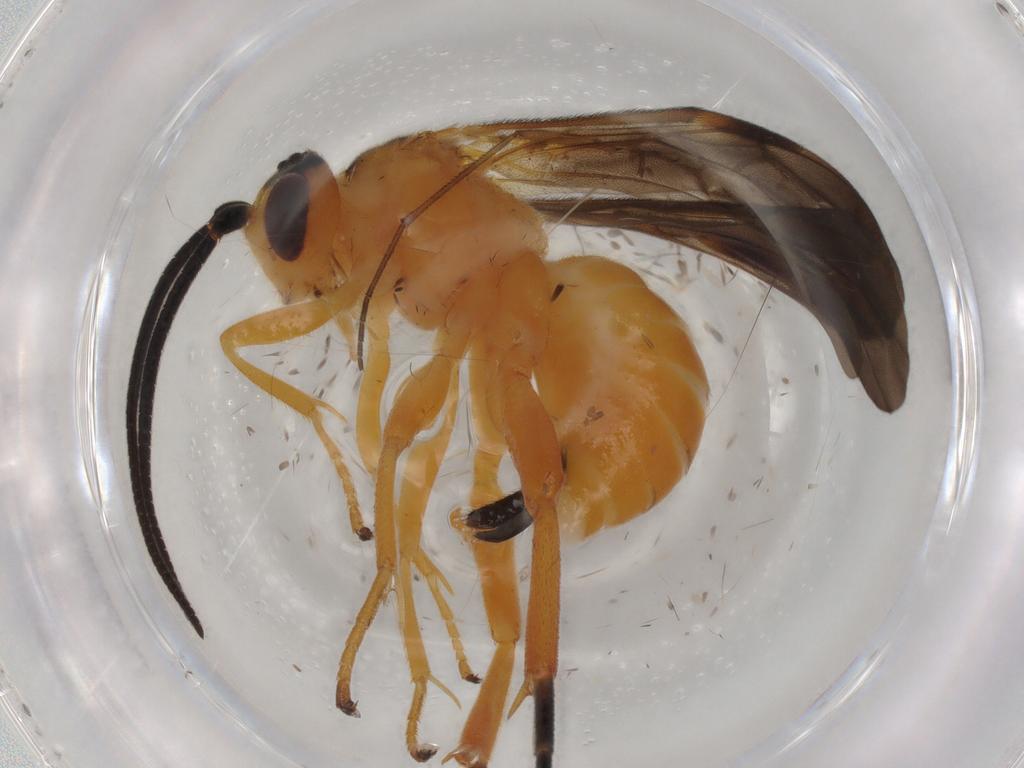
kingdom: Animalia
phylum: Arthropoda
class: Insecta
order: Hymenoptera
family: Braconidae
